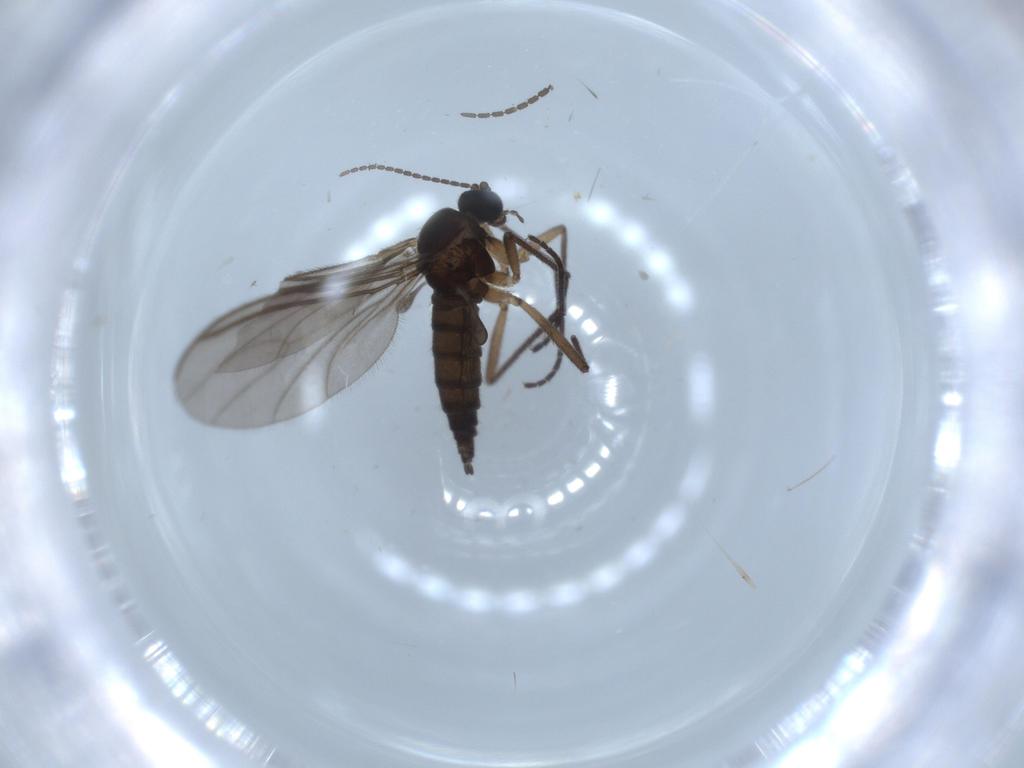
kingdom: Animalia
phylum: Arthropoda
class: Insecta
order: Diptera
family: Sciaridae
